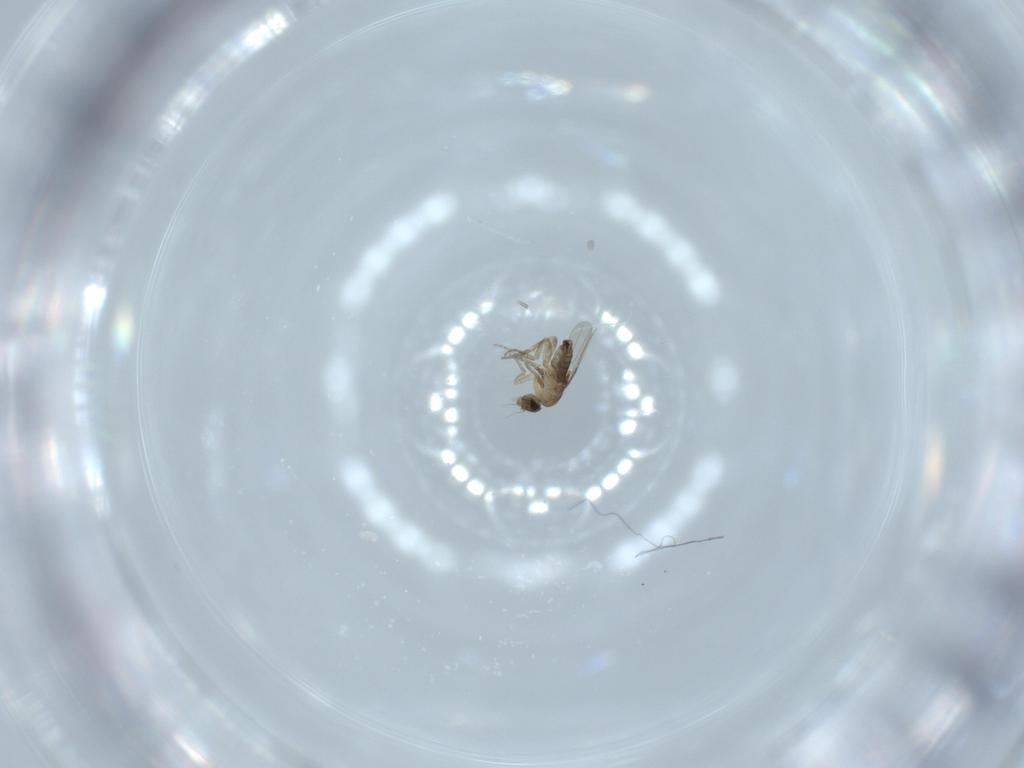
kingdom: Animalia
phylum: Arthropoda
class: Insecta
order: Diptera
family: Phoridae
